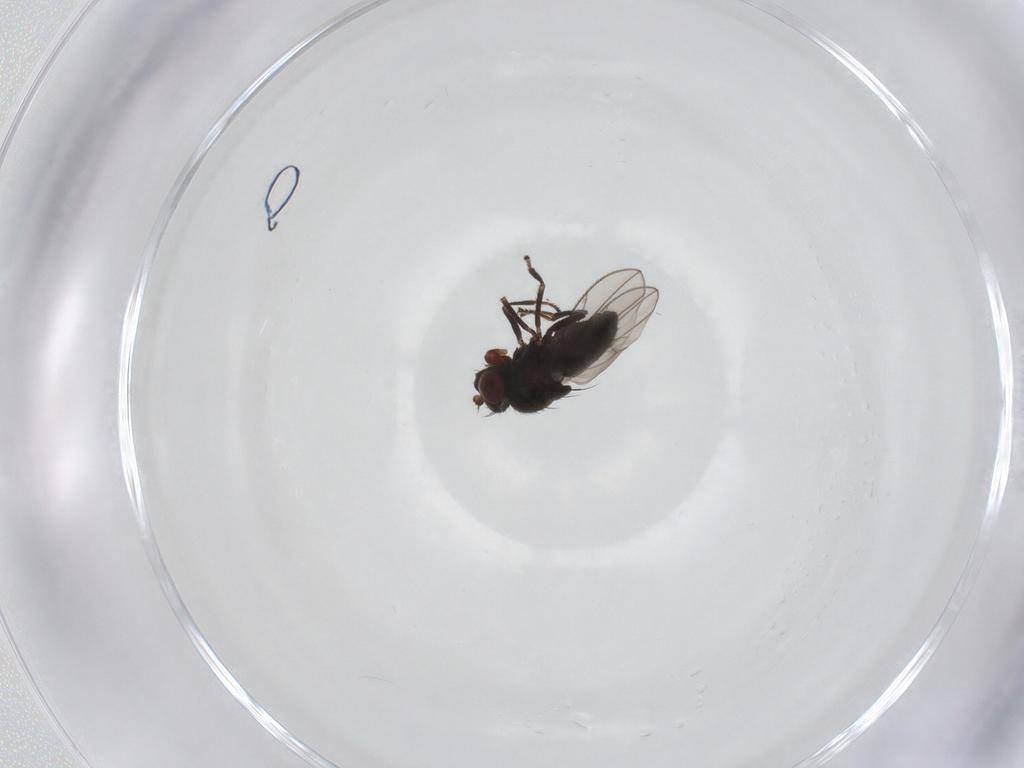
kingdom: Animalia
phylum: Arthropoda
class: Insecta
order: Diptera
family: Ephydridae
